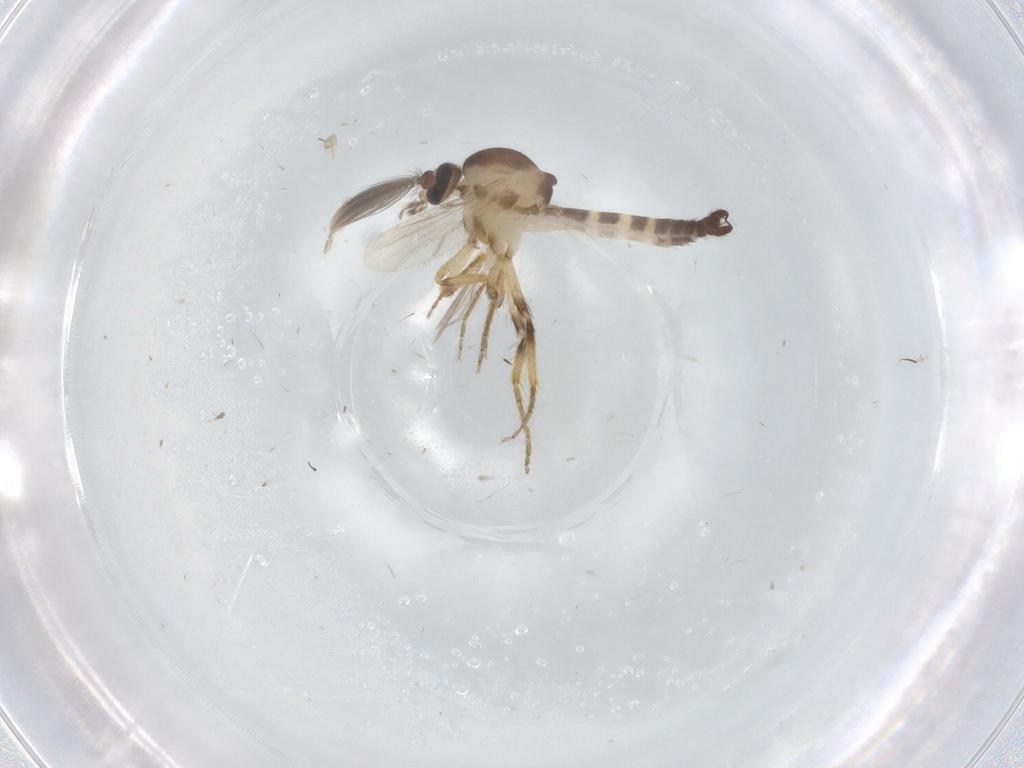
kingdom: Animalia
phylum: Arthropoda
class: Insecta
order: Diptera
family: Ceratopogonidae
